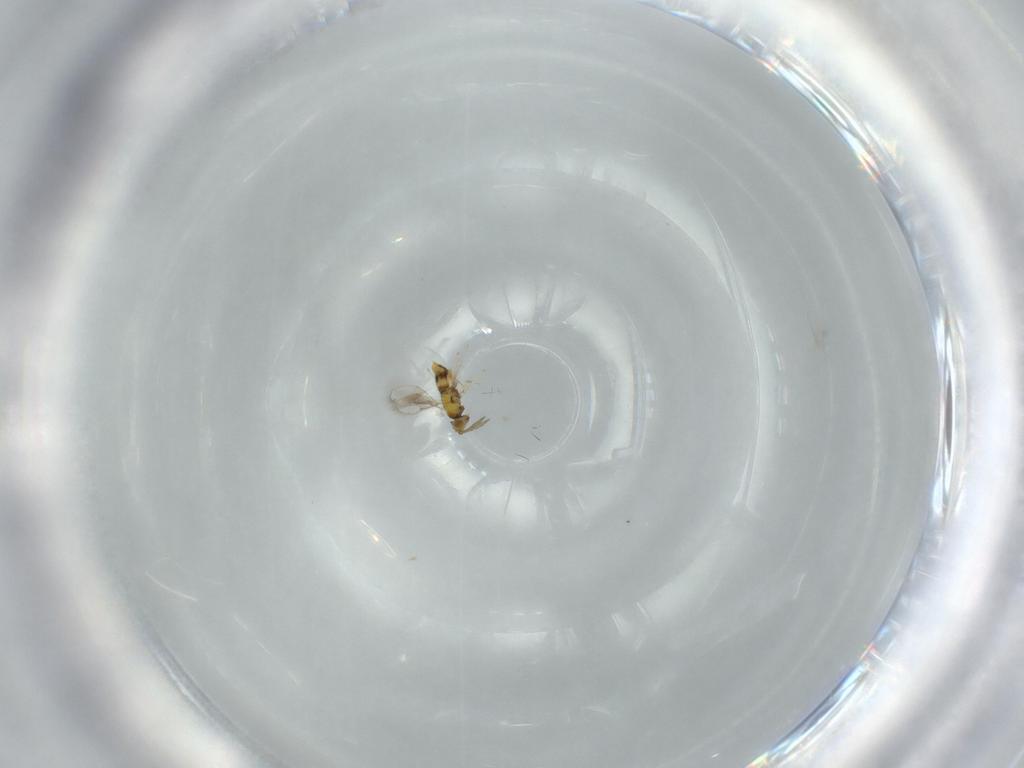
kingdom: Animalia
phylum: Arthropoda
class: Insecta
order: Hymenoptera
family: Aphelinidae
